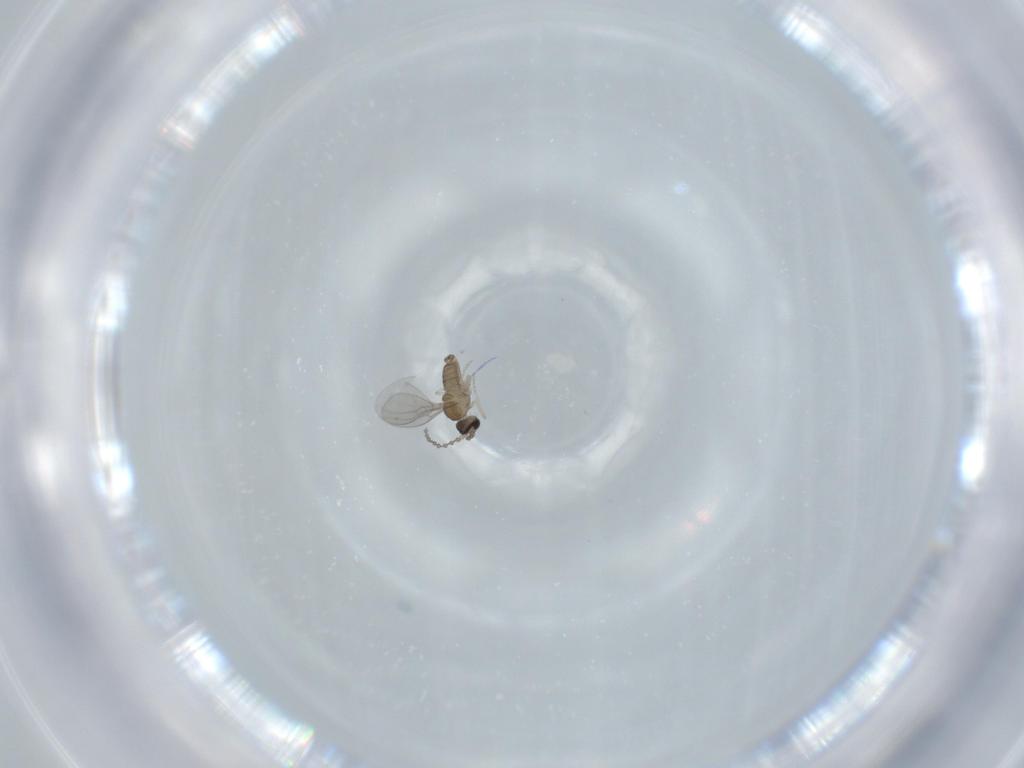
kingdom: Animalia
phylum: Arthropoda
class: Insecta
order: Diptera
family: Cecidomyiidae
